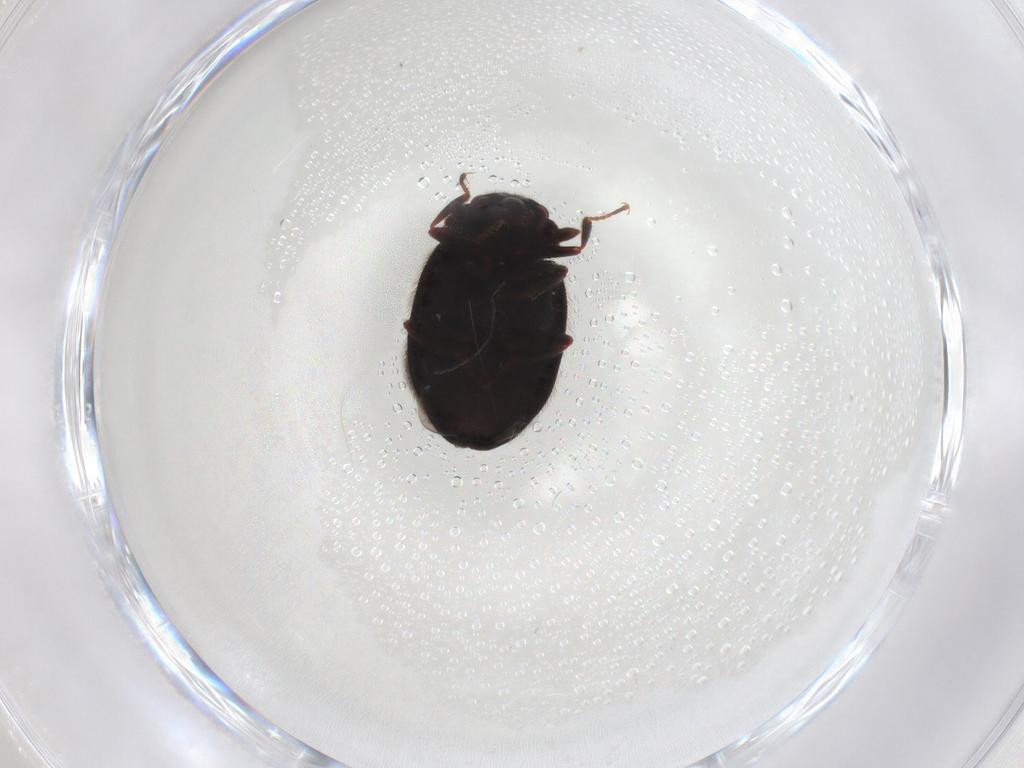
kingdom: Animalia
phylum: Arthropoda
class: Insecta
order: Coleoptera
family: Sphindidae
